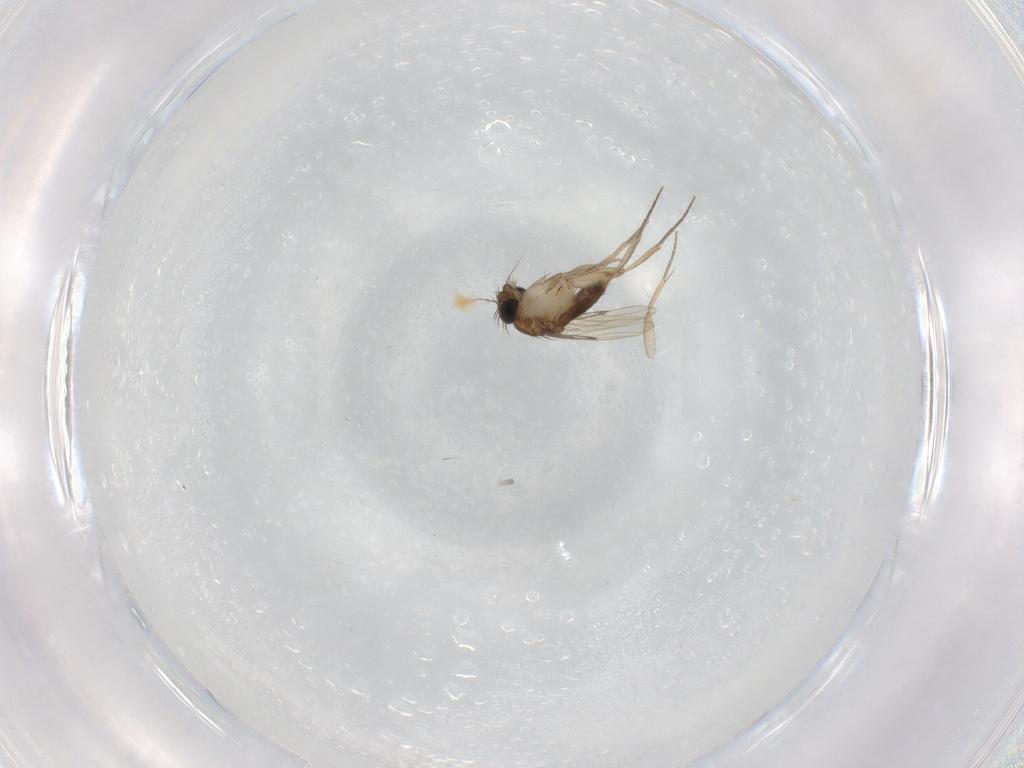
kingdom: Animalia
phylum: Arthropoda
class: Insecta
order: Diptera
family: Phoridae
